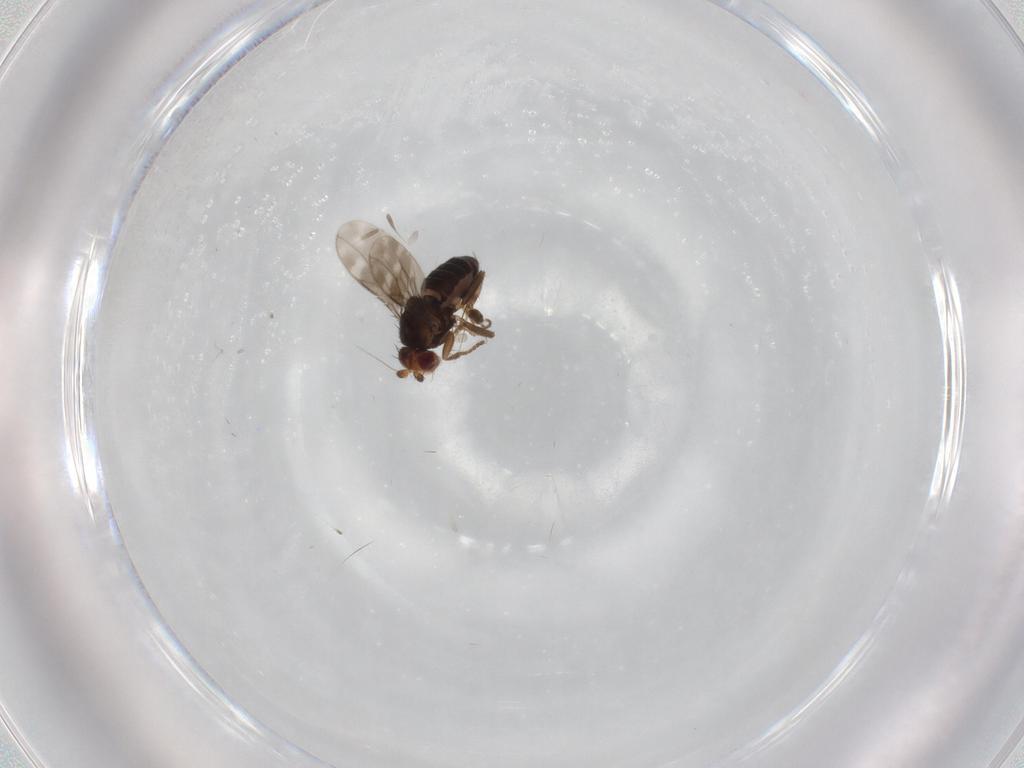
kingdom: Animalia
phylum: Arthropoda
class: Insecta
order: Diptera
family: Sphaeroceridae
